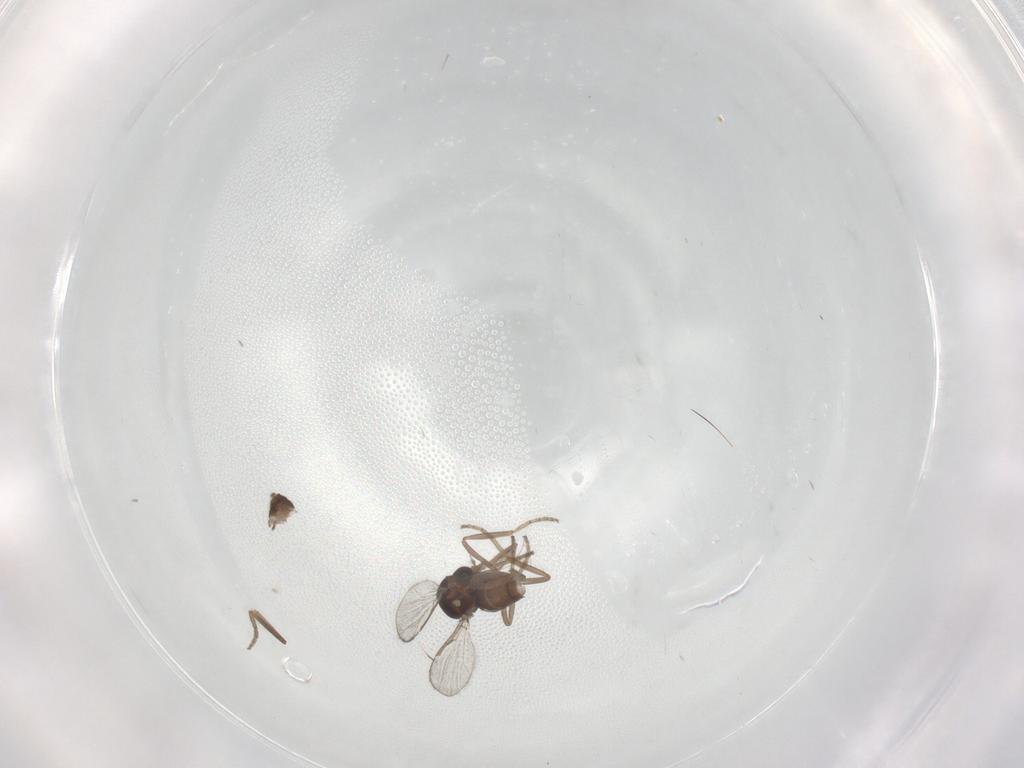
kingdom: Animalia
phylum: Arthropoda
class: Insecta
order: Diptera
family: Ceratopogonidae
